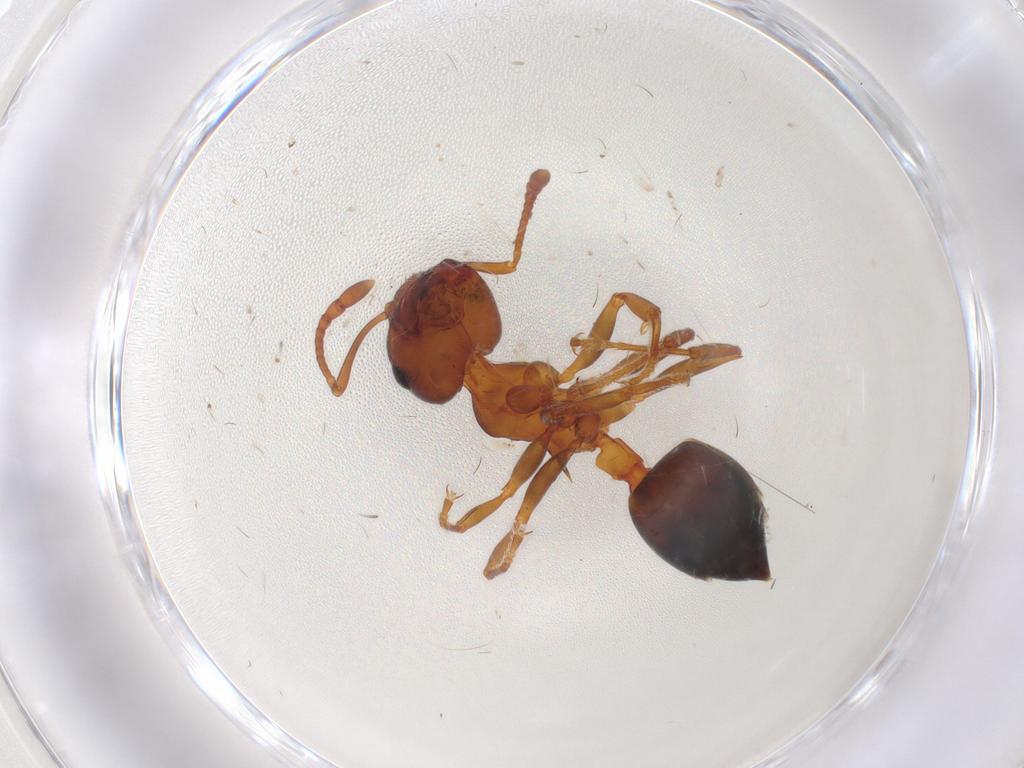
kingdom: Animalia
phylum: Arthropoda
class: Insecta
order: Hymenoptera
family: Formicidae
